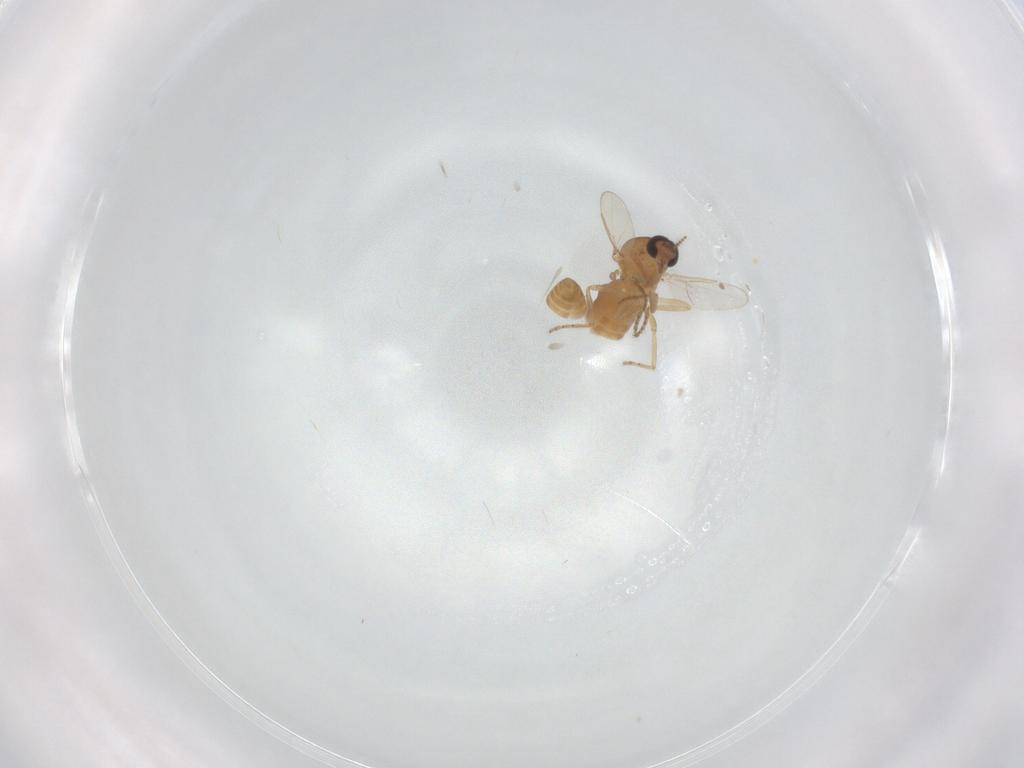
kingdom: Animalia
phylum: Arthropoda
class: Insecta
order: Diptera
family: Ceratopogonidae
